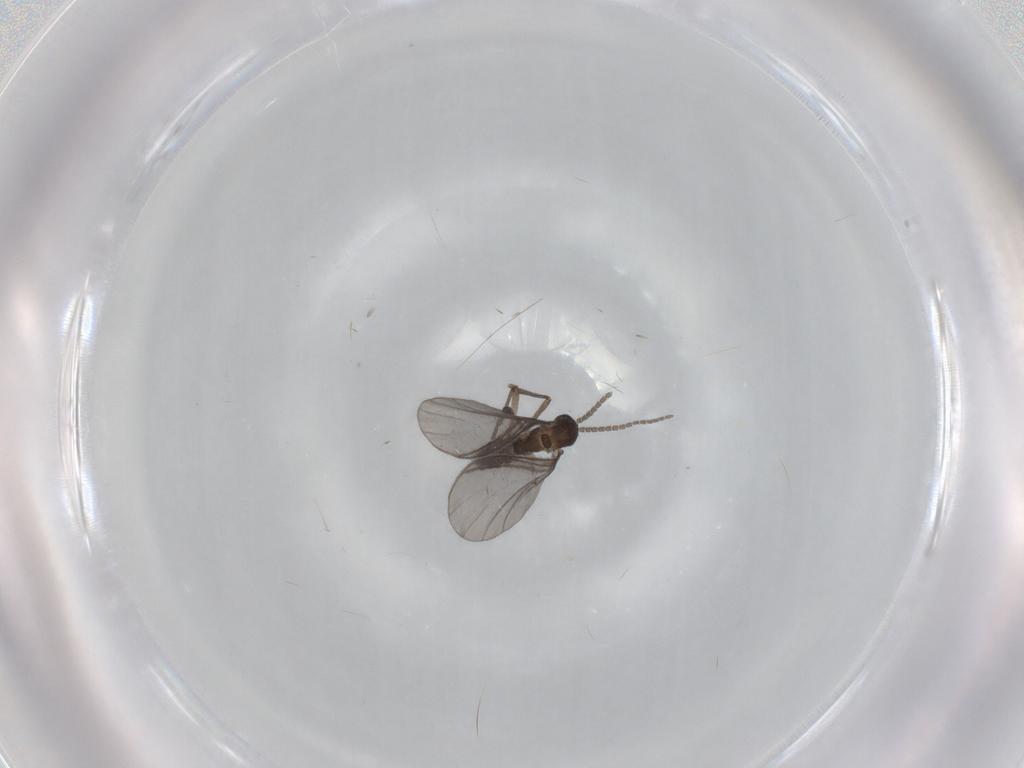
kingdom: Animalia
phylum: Arthropoda
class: Insecta
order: Diptera
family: Sciaridae
